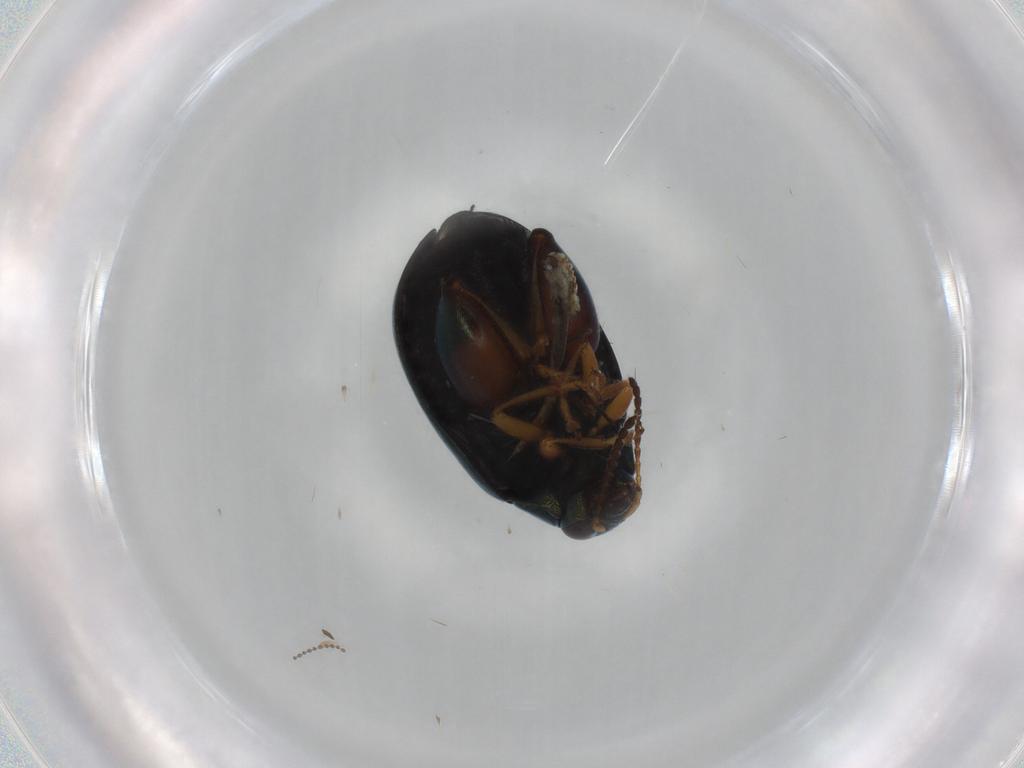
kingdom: Animalia
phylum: Arthropoda
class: Insecta
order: Coleoptera
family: Chrysomelidae
